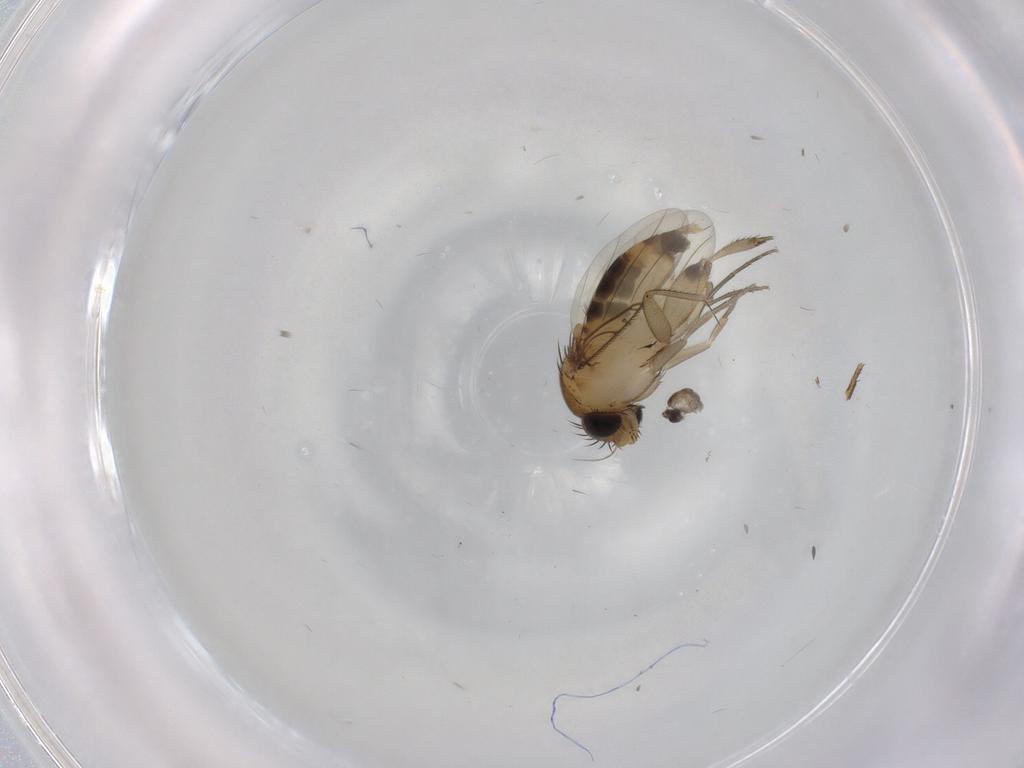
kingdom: Animalia
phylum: Arthropoda
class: Insecta
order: Diptera
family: Phoridae
